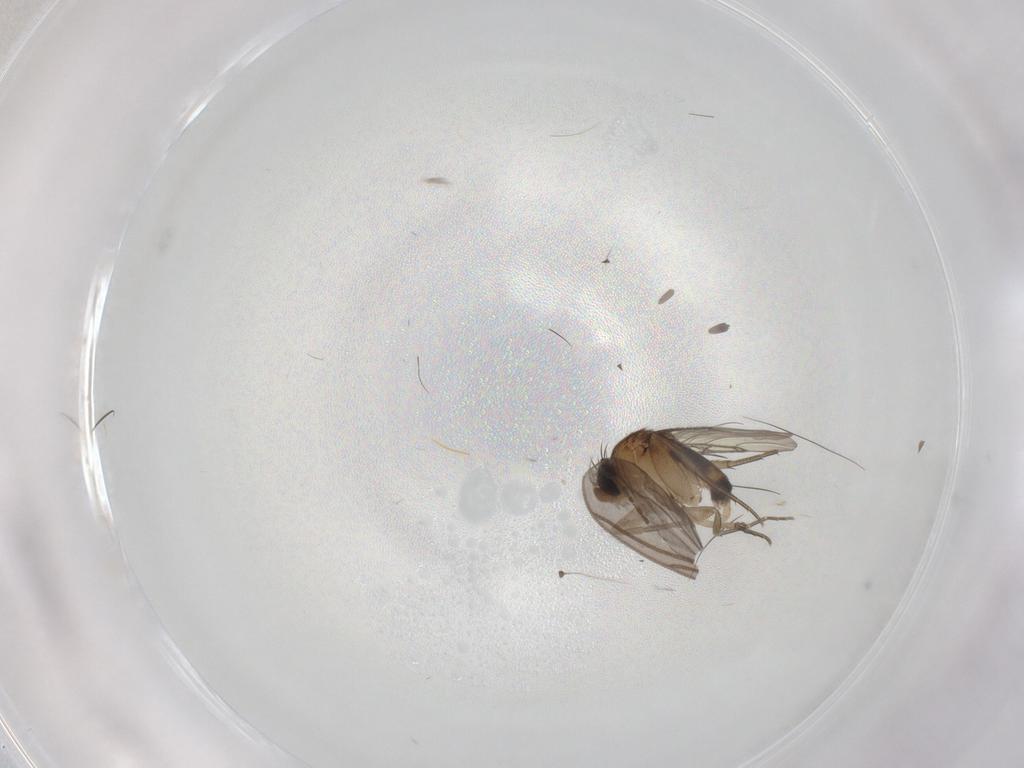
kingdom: Animalia
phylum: Arthropoda
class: Insecta
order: Diptera
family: Phoridae
